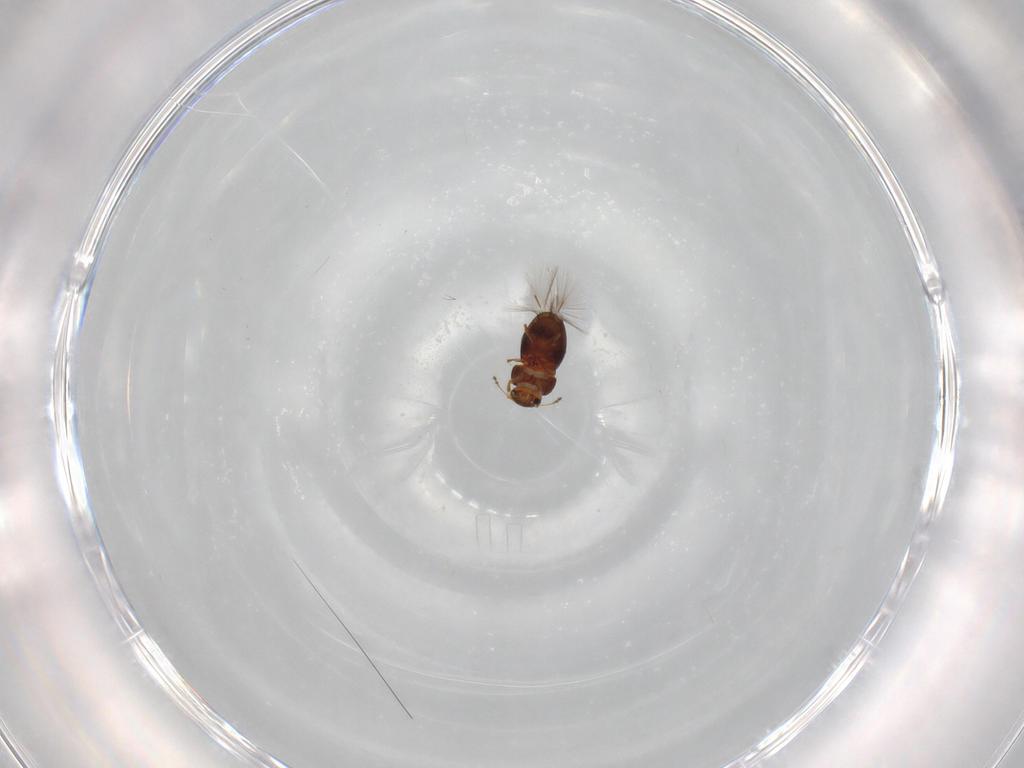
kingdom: Animalia
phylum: Arthropoda
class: Insecta
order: Coleoptera
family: Ptiliidae
